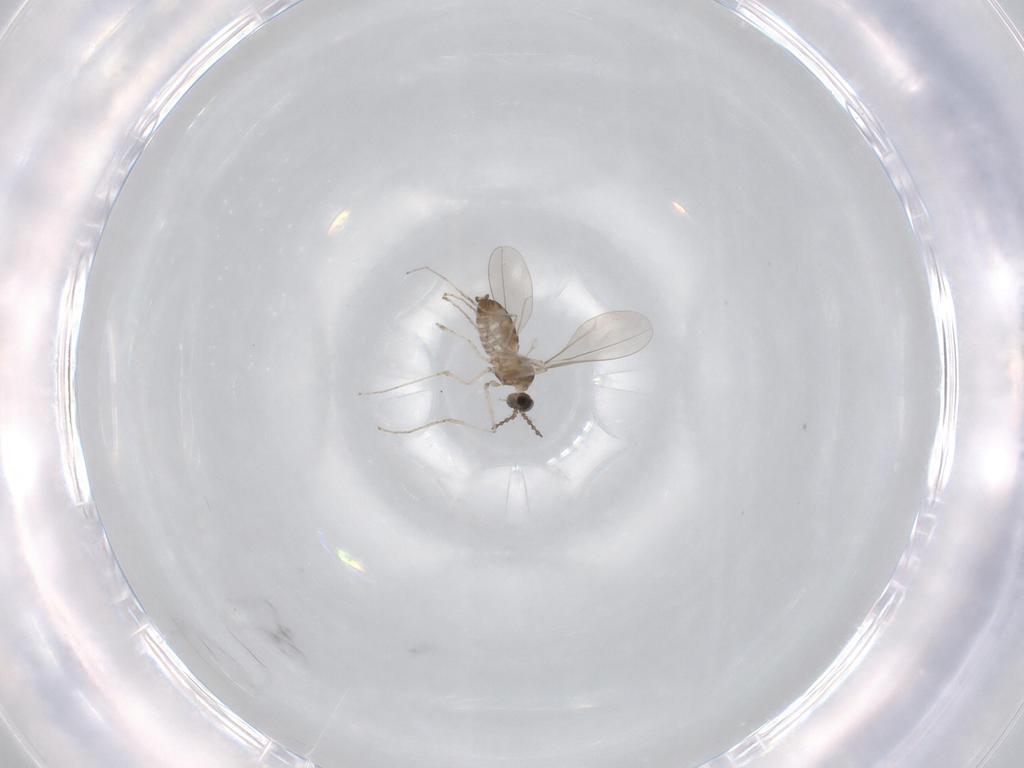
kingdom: Animalia
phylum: Arthropoda
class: Insecta
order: Diptera
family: Cecidomyiidae
